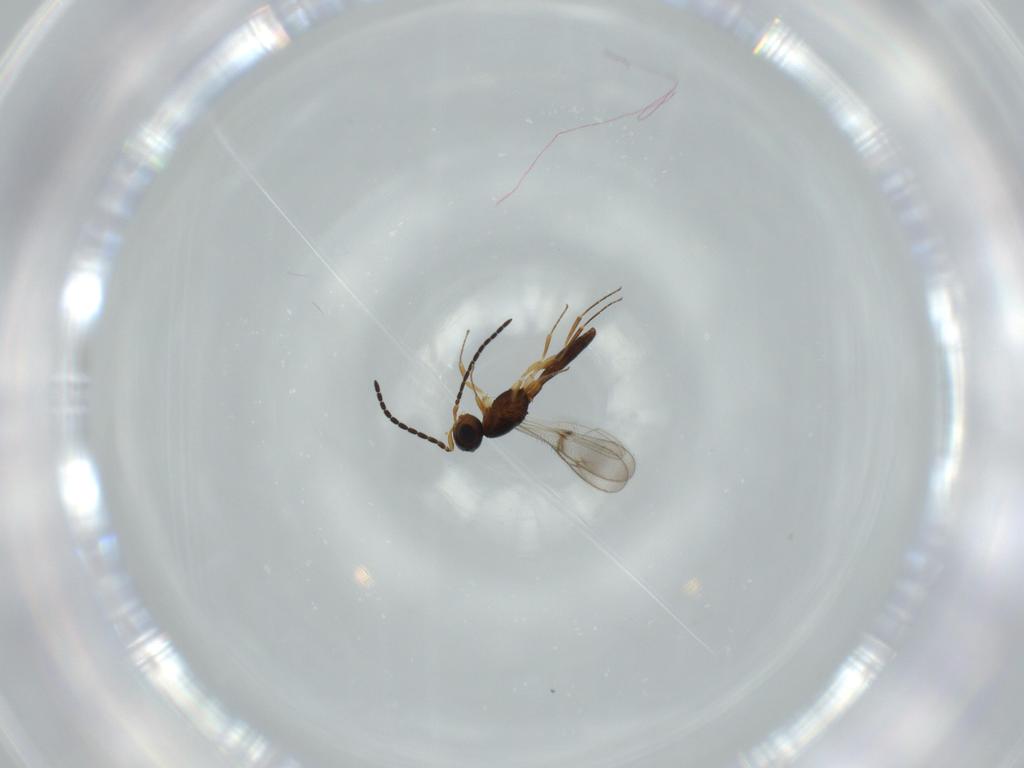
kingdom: Animalia
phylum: Arthropoda
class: Insecta
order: Hymenoptera
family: Scelionidae
